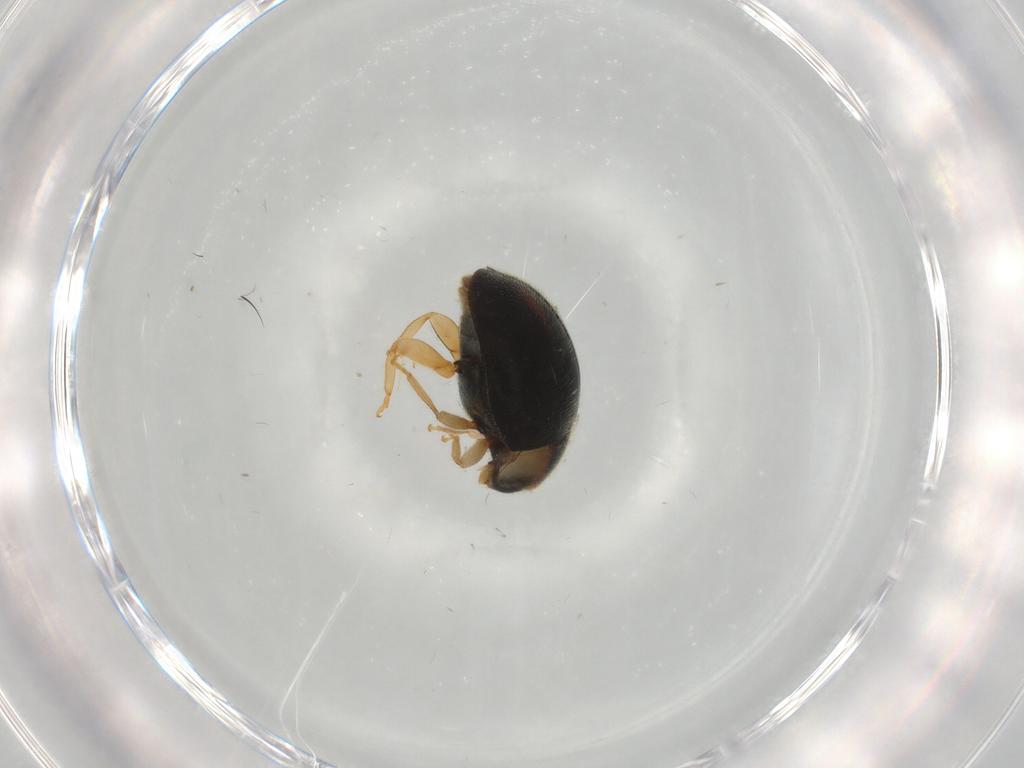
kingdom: Animalia
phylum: Arthropoda
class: Insecta
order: Coleoptera
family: Coccinellidae
